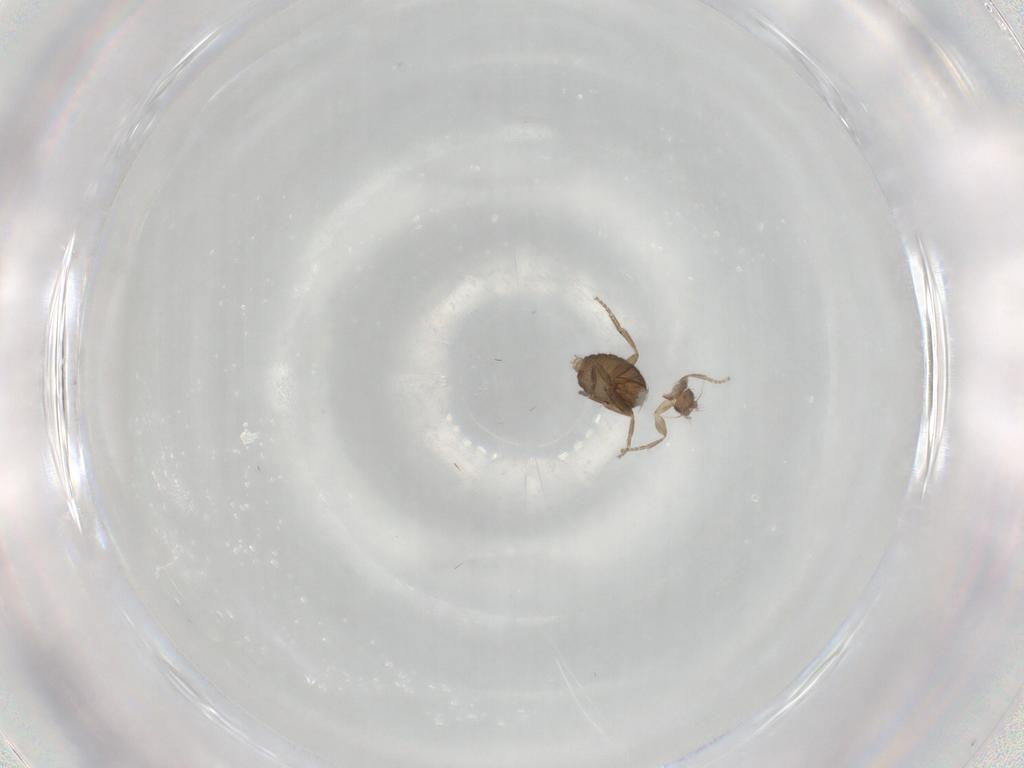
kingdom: Animalia
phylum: Arthropoda
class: Insecta
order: Diptera
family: Phoridae
